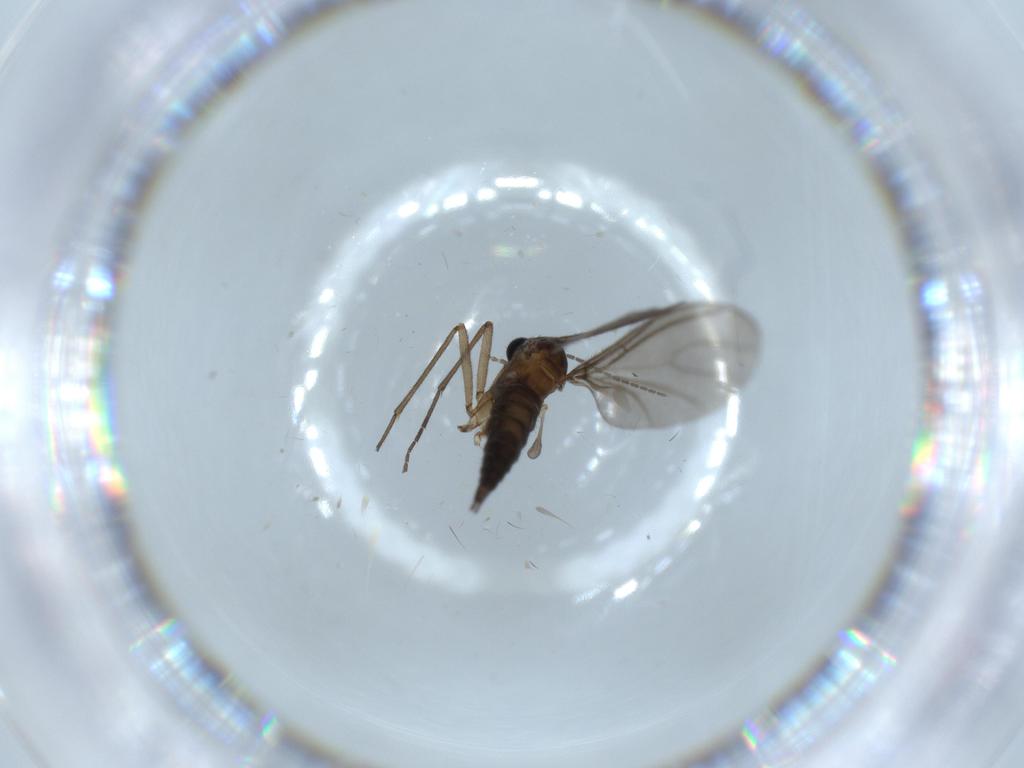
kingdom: Animalia
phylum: Arthropoda
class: Insecta
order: Diptera
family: Sciaridae
